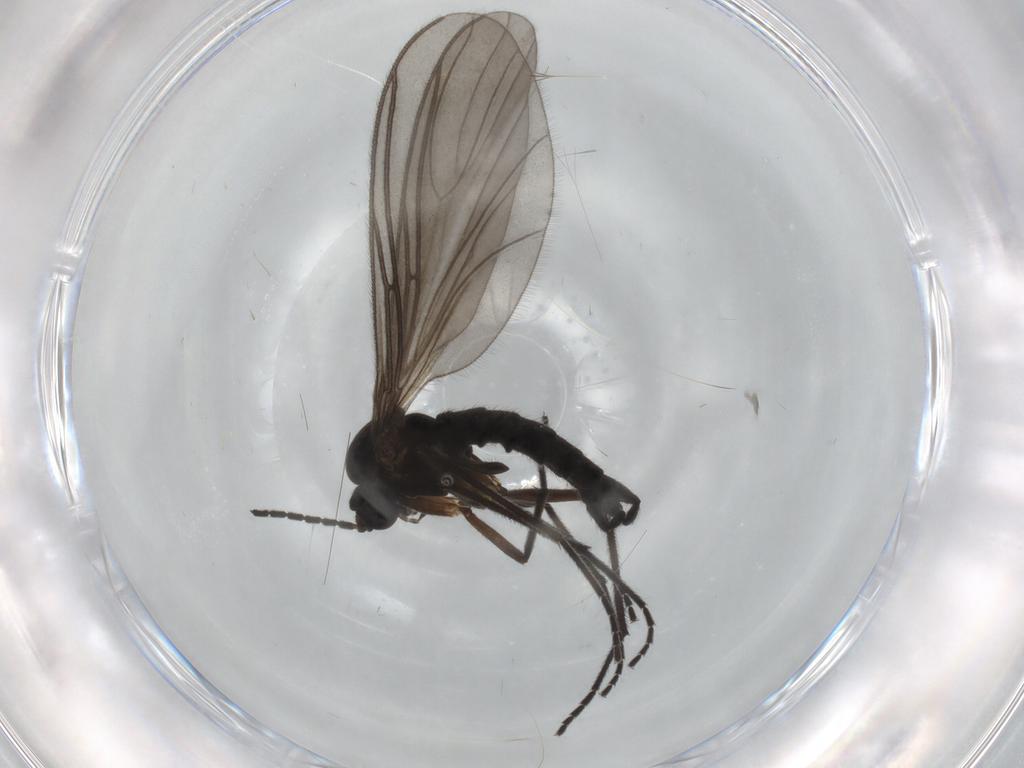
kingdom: Animalia
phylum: Arthropoda
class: Insecta
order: Diptera
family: Sciaridae
